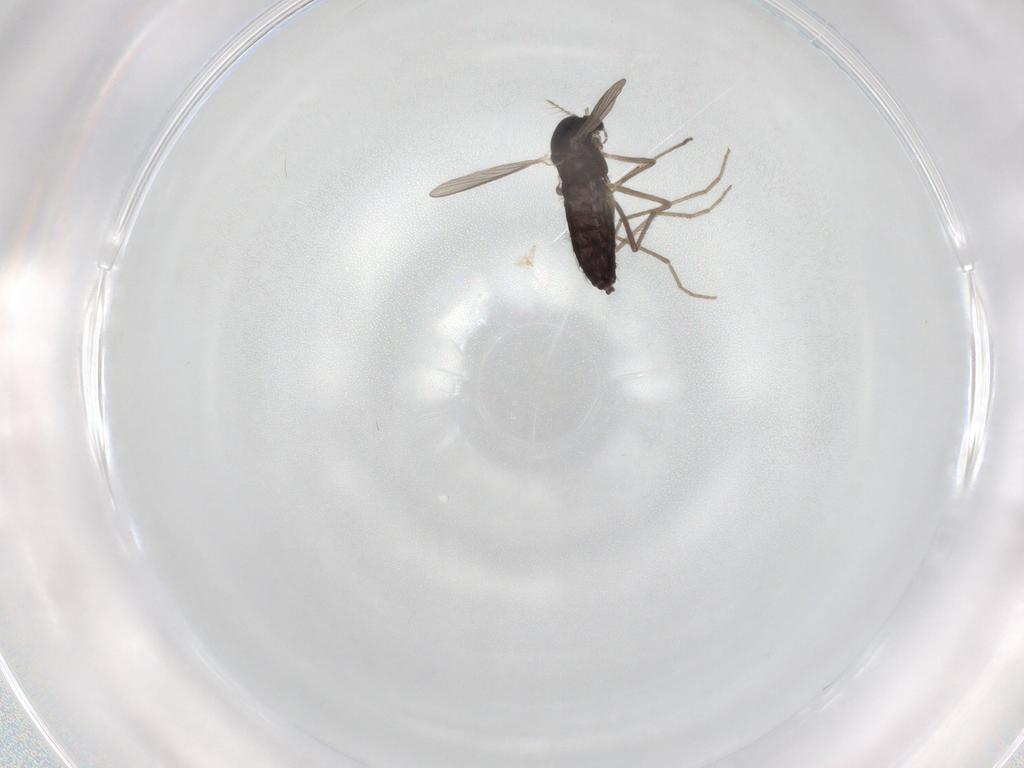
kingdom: Animalia
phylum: Arthropoda
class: Insecta
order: Diptera
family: Chironomidae
